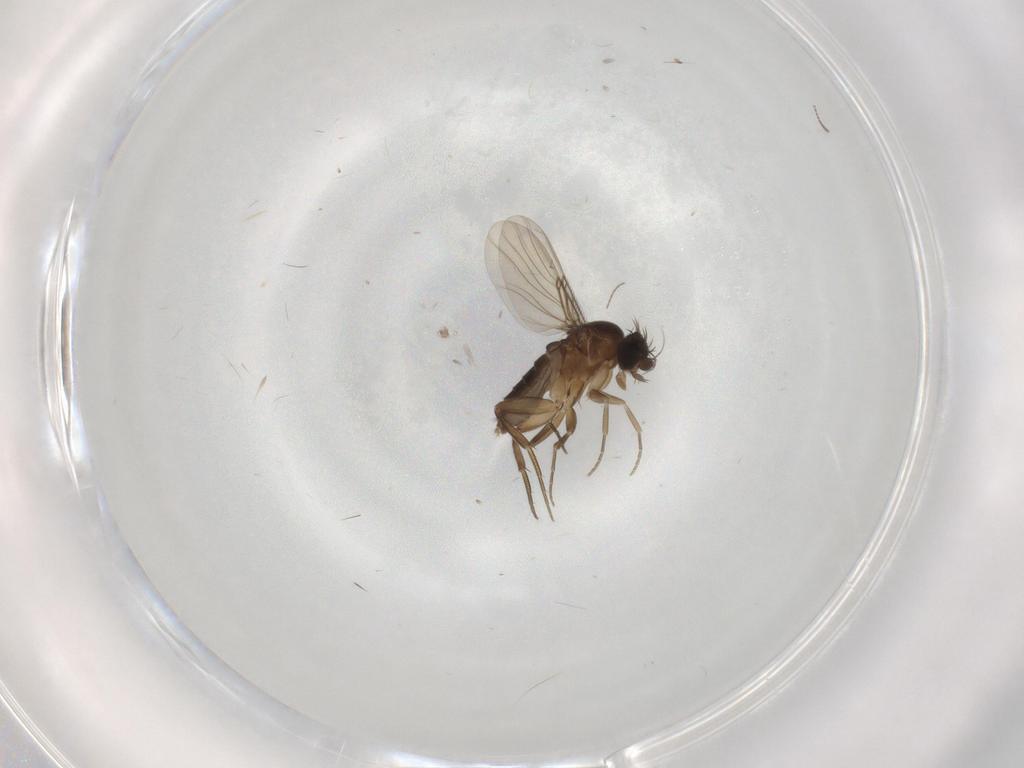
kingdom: Animalia
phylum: Arthropoda
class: Insecta
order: Diptera
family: Phoridae
